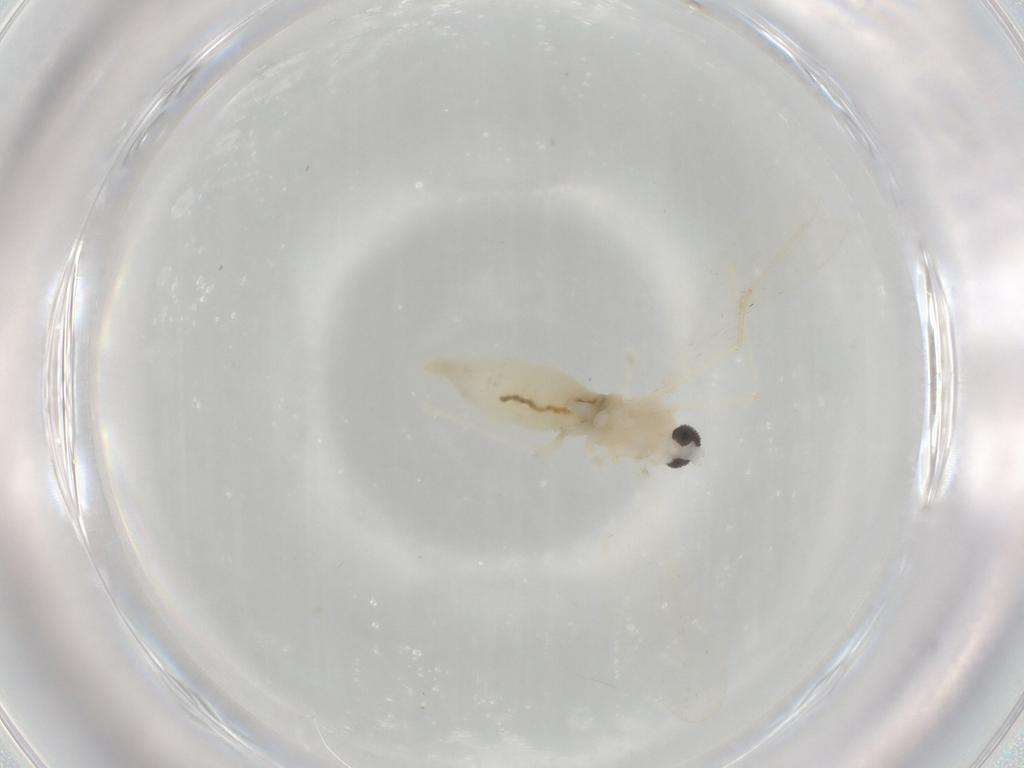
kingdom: Animalia
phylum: Arthropoda
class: Insecta
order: Diptera
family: Cecidomyiidae
